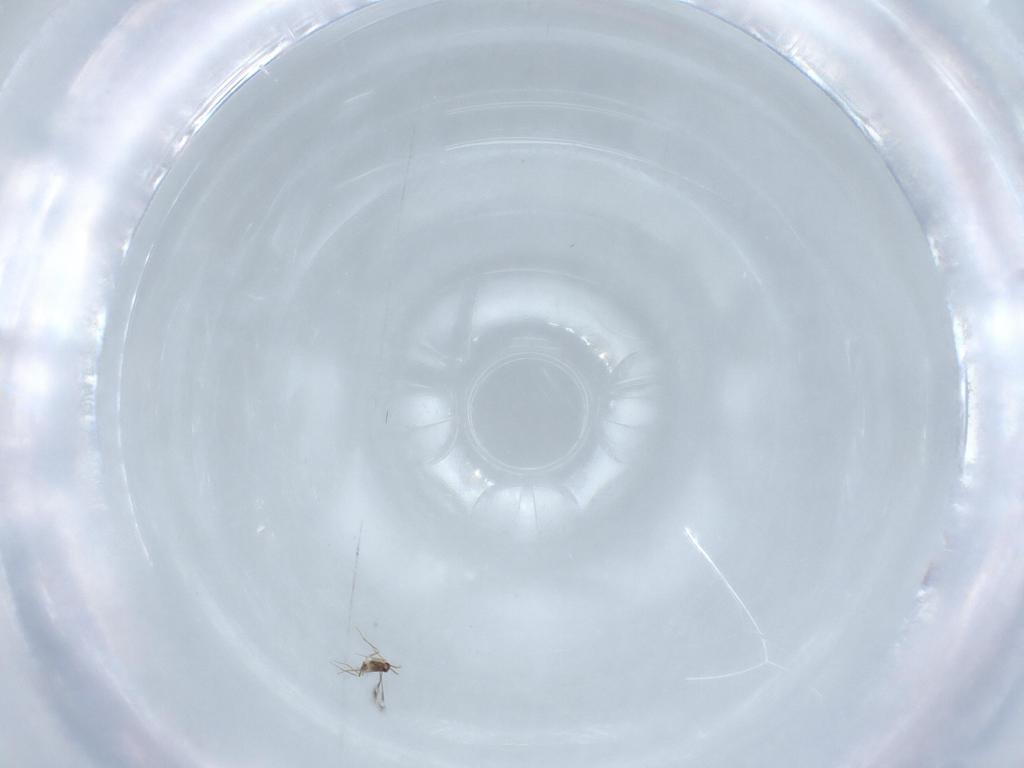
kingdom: Animalia
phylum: Arthropoda
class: Insecta
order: Hymenoptera
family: Mymaridae
